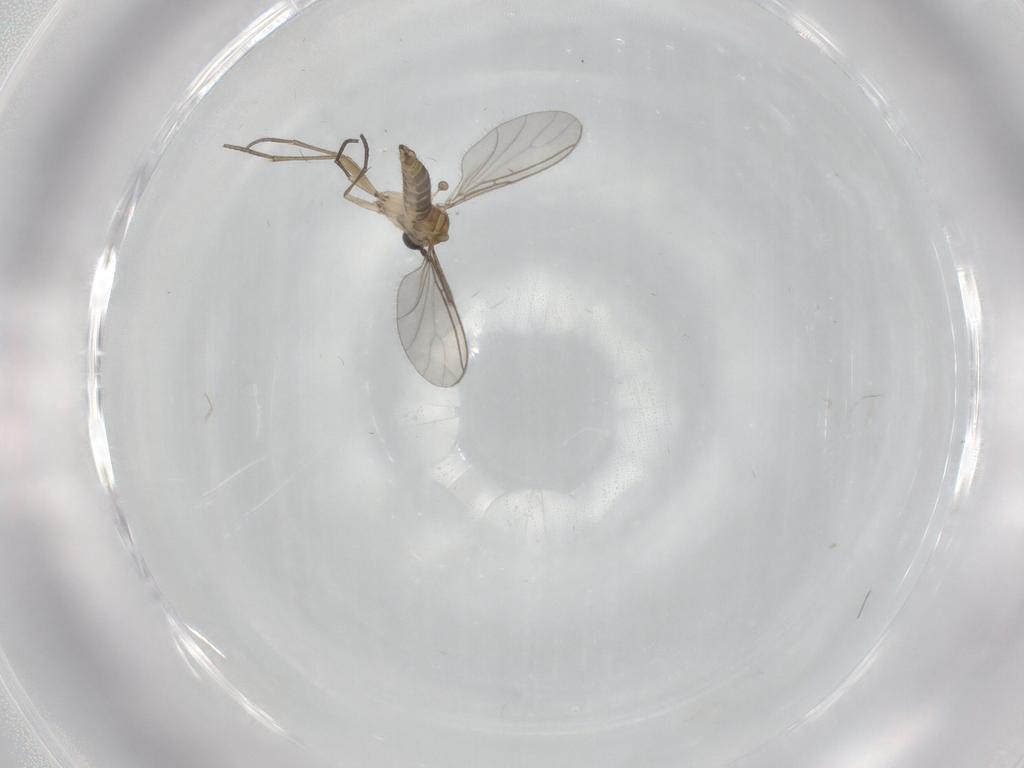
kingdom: Animalia
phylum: Arthropoda
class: Insecta
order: Diptera
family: Sciaridae
